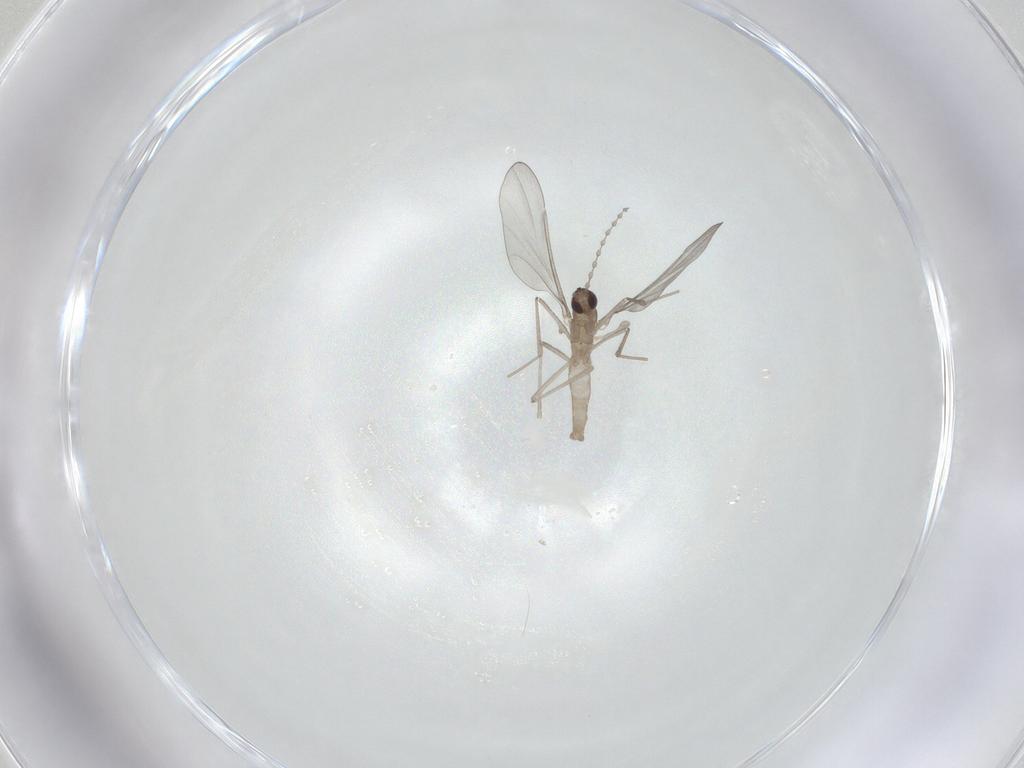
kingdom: Animalia
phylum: Arthropoda
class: Insecta
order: Diptera
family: Cecidomyiidae
